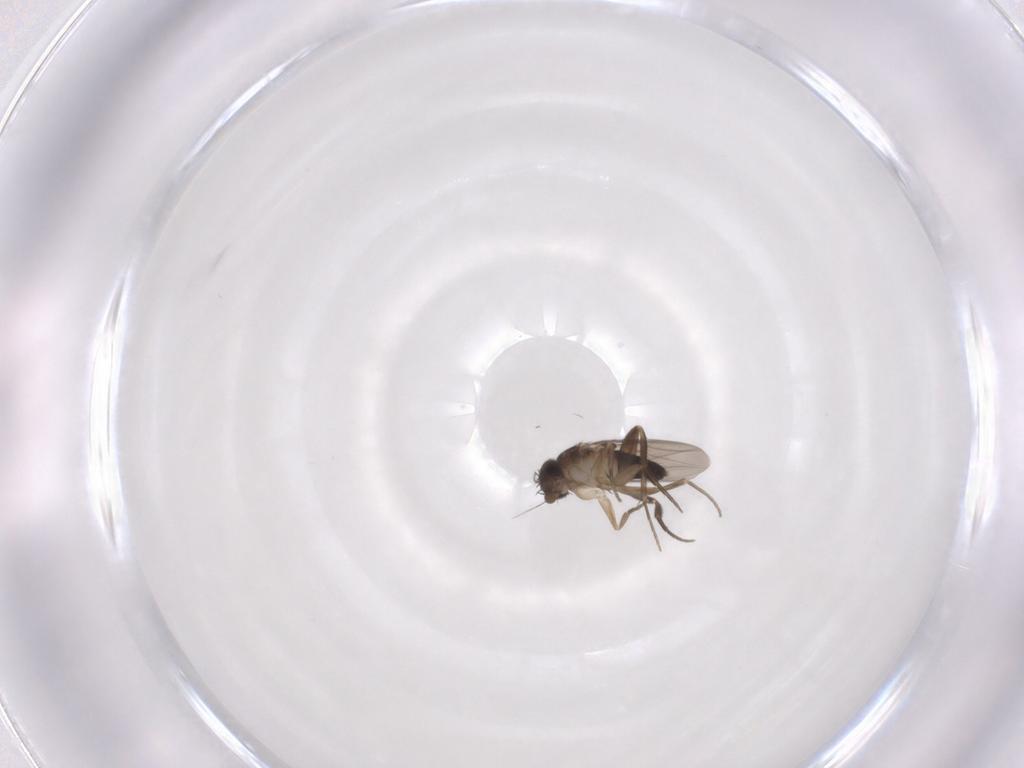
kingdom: Animalia
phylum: Arthropoda
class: Insecta
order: Diptera
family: Phoridae
